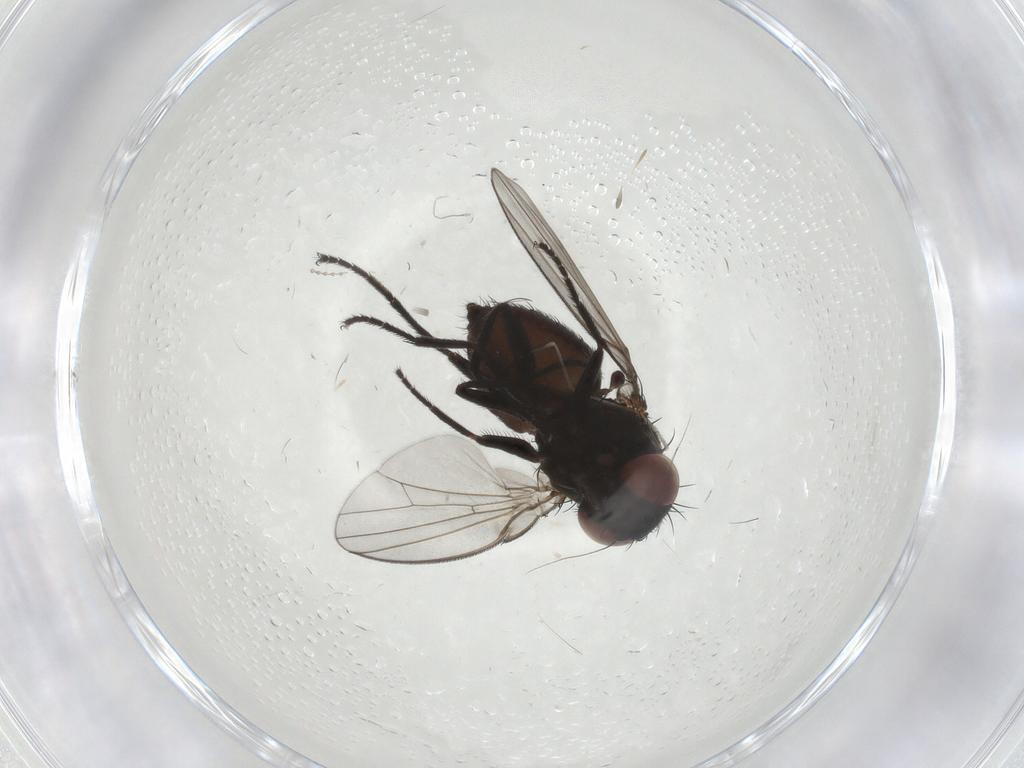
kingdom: Animalia
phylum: Arthropoda
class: Insecta
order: Diptera
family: Milichiidae
